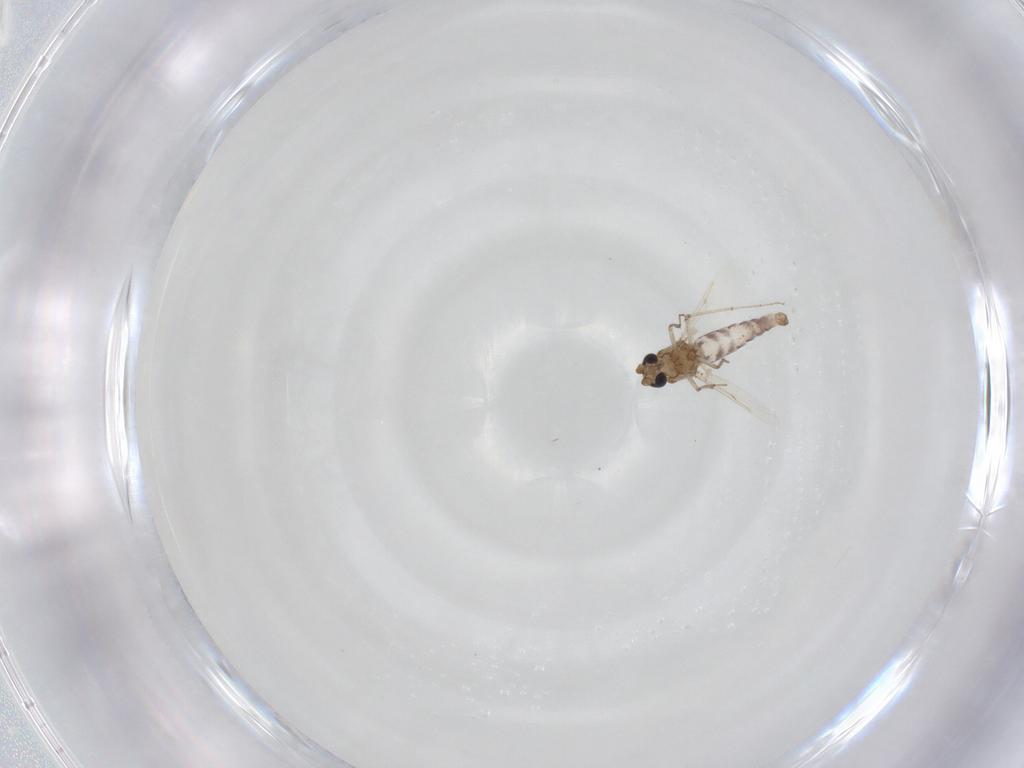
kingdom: Animalia
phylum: Arthropoda
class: Insecta
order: Diptera
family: Ceratopogonidae
